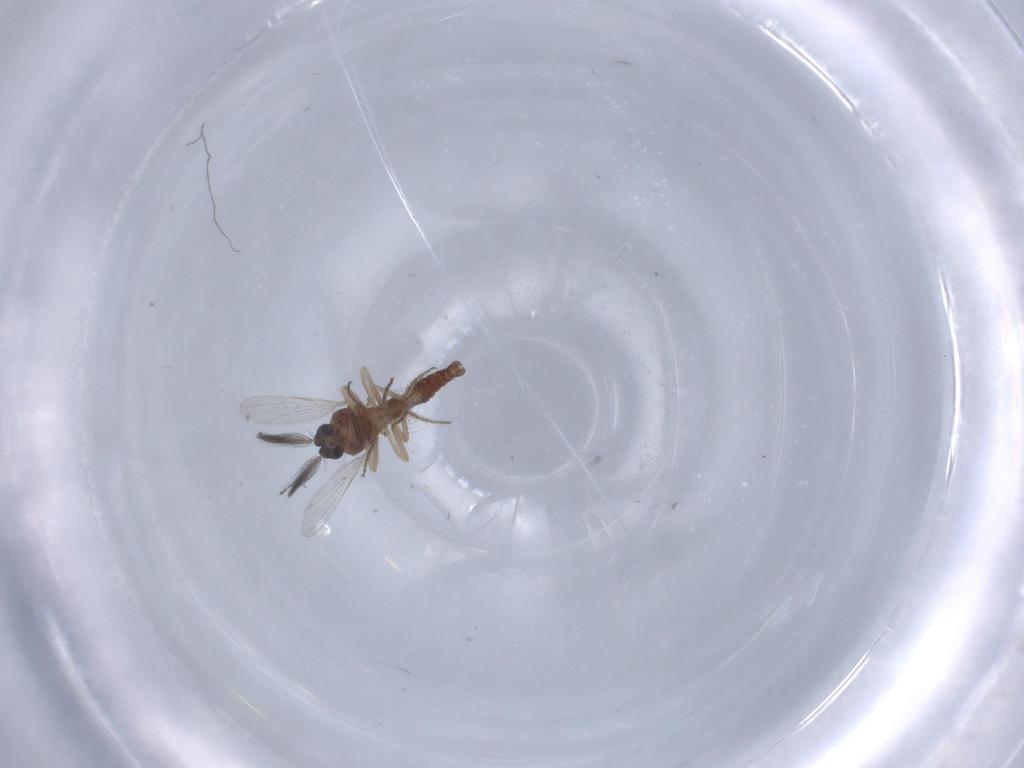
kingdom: Animalia
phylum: Arthropoda
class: Insecta
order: Diptera
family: Ceratopogonidae
